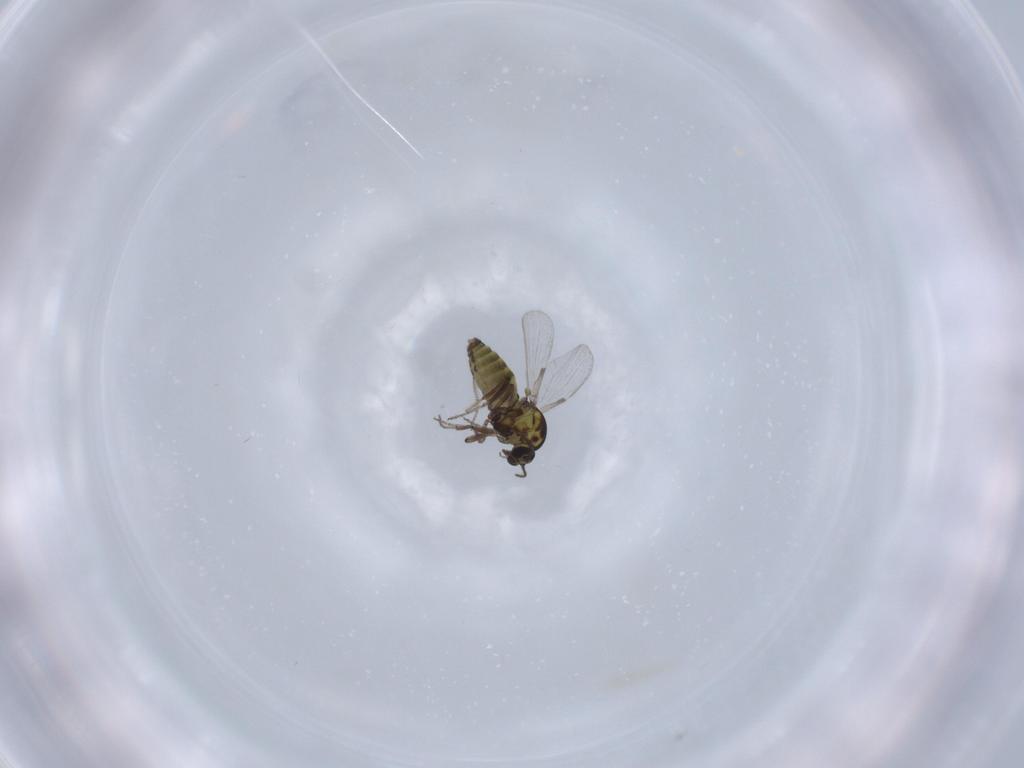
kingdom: Animalia
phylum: Arthropoda
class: Insecta
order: Diptera
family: Ceratopogonidae
